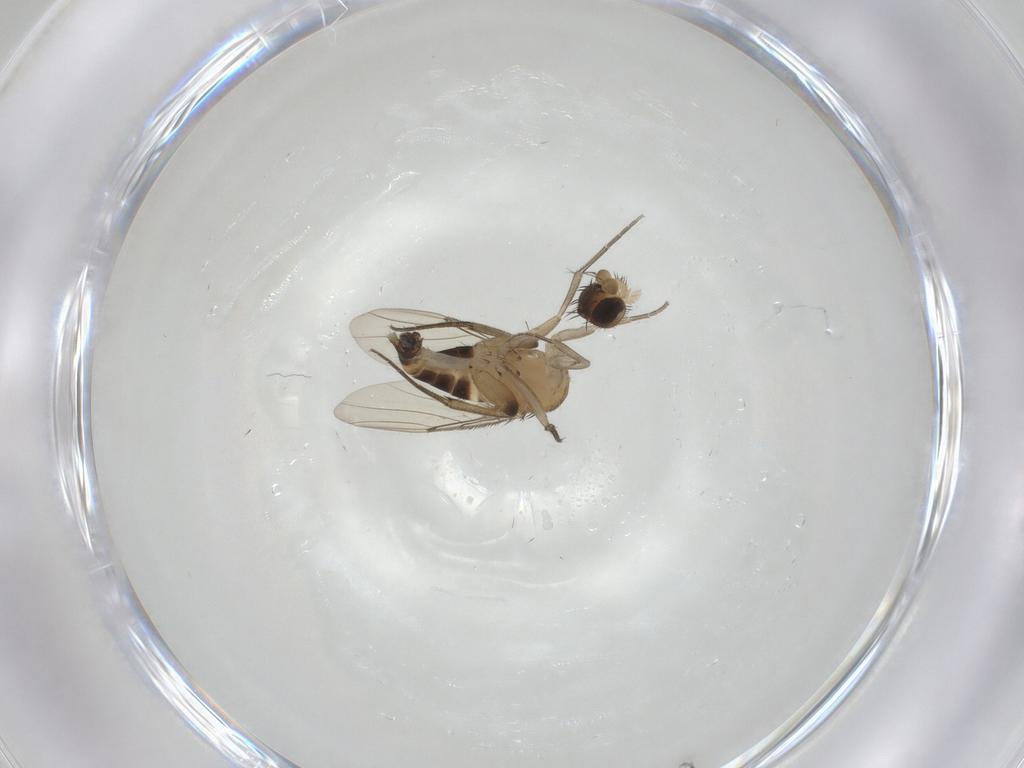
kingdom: Animalia
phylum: Arthropoda
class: Insecta
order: Diptera
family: Phoridae
